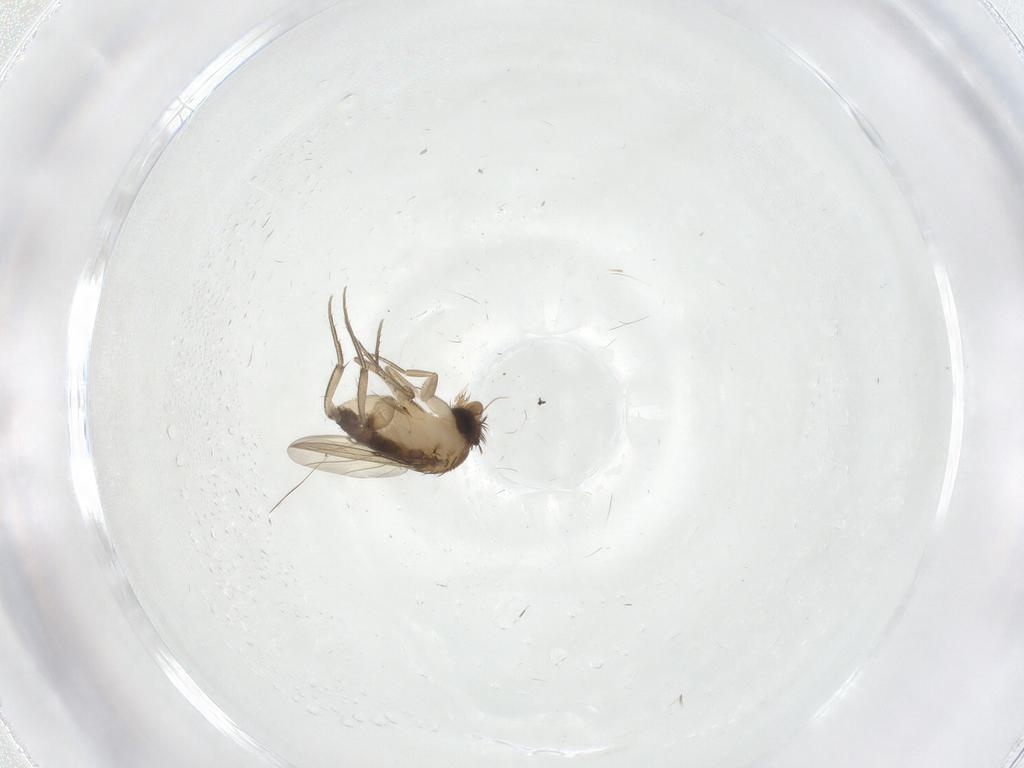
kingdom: Animalia
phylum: Arthropoda
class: Insecta
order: Diptera
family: Phoridae
